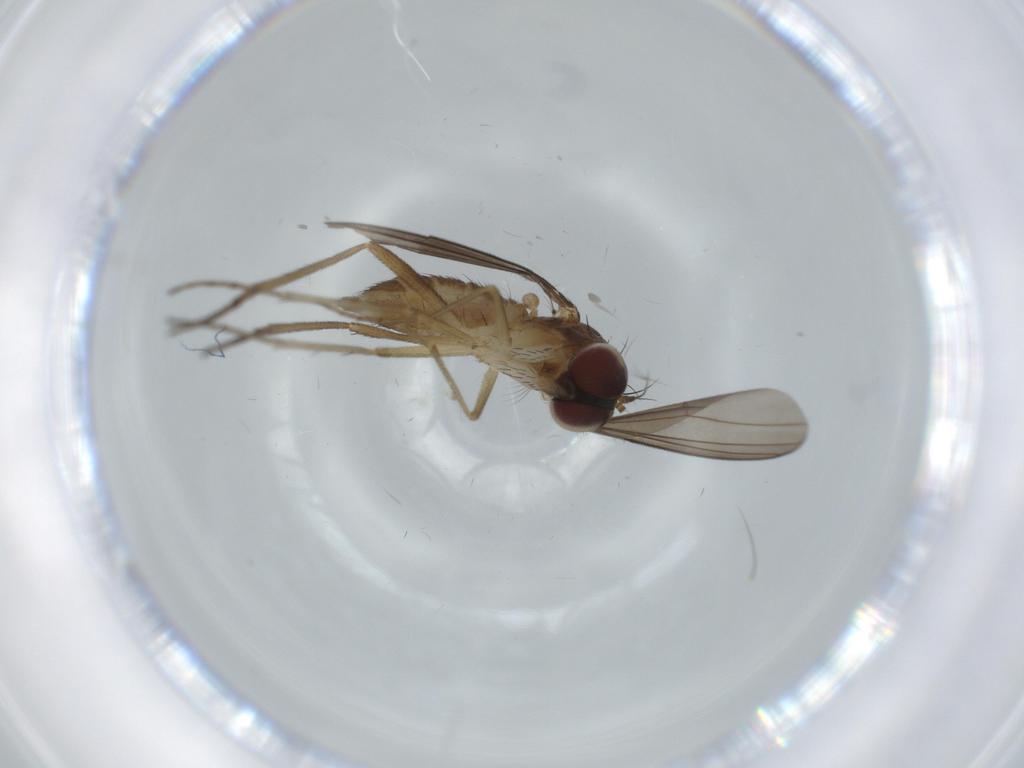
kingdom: Animalia
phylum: Arthropoda
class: Insecta
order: Diptera
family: Dolichopodidae
